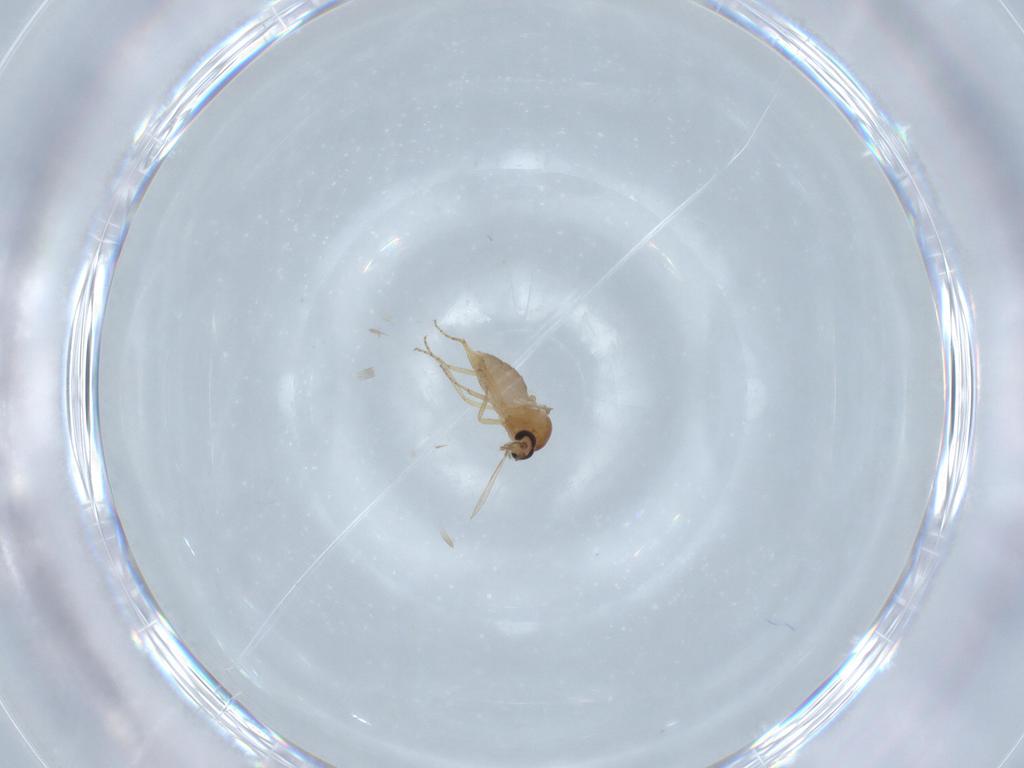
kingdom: Animalia
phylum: Arthropoda
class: Insecta
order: Diptera
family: Ceratopogonidae
